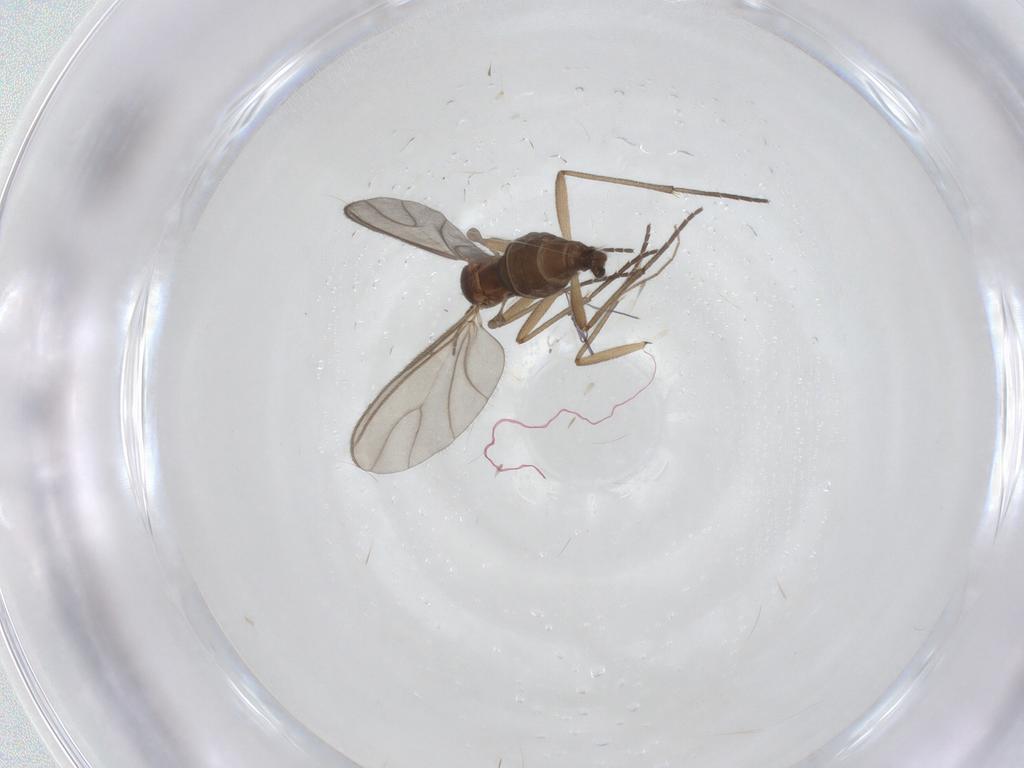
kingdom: Animalia
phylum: Arthropoda
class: Insecta
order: Diptera
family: Sciaridae
